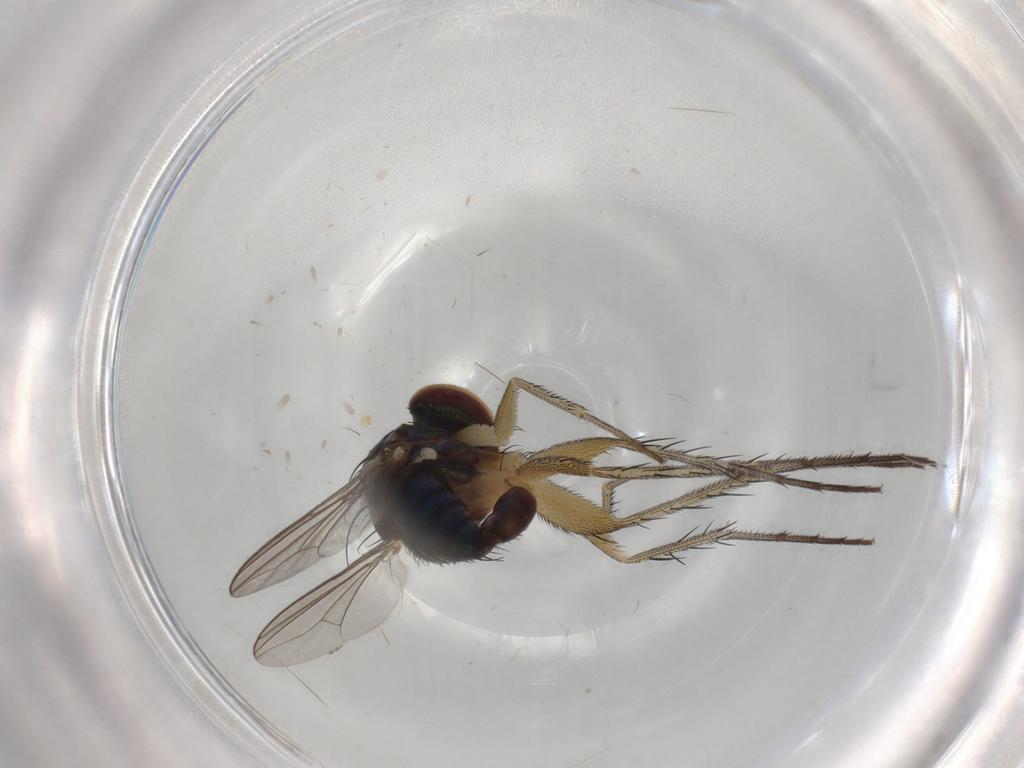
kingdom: Animalia
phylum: Arthropoda
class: Insecta
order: Diptera
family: Dolichopodidae
